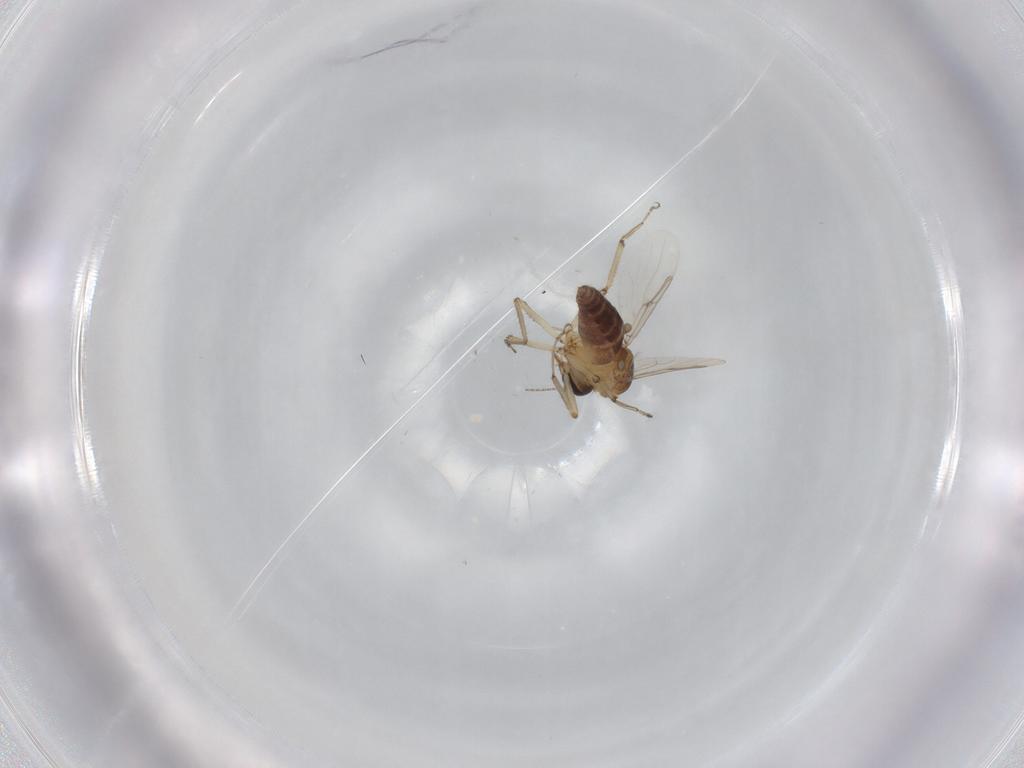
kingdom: Animalia
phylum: Arthropoda
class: Insecta
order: Diptera
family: Ceratopogonidae
